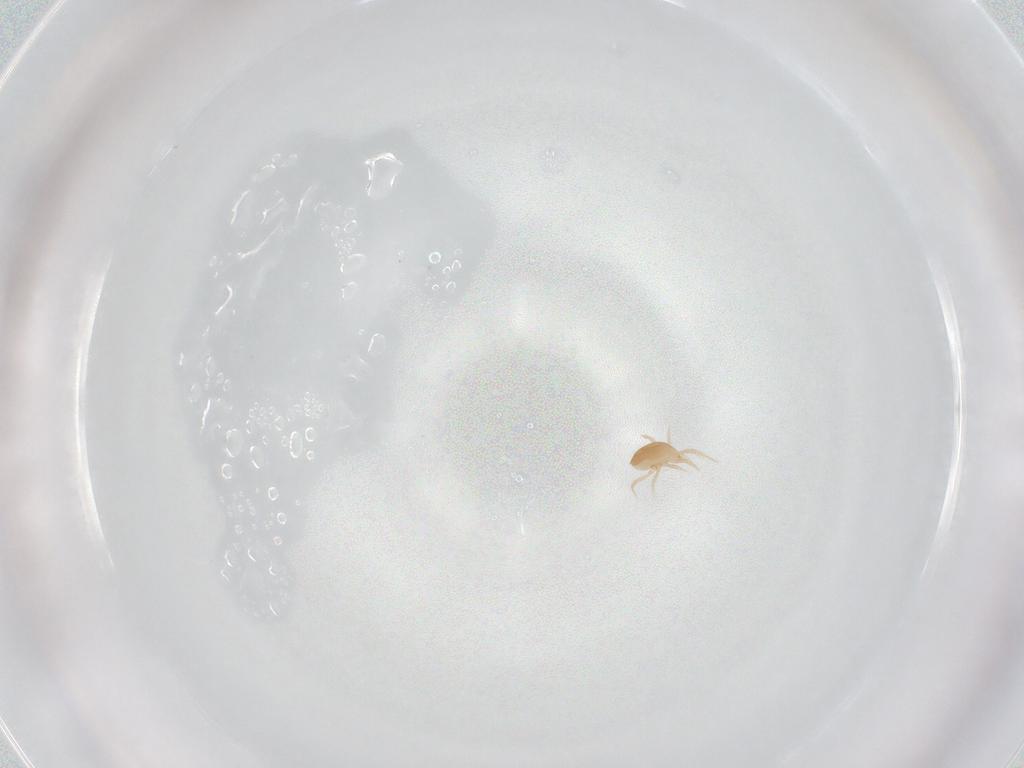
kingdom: Animalia
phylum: Arthropoda
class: Arachnida
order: Mesostigmata
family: Phytoseiidae
